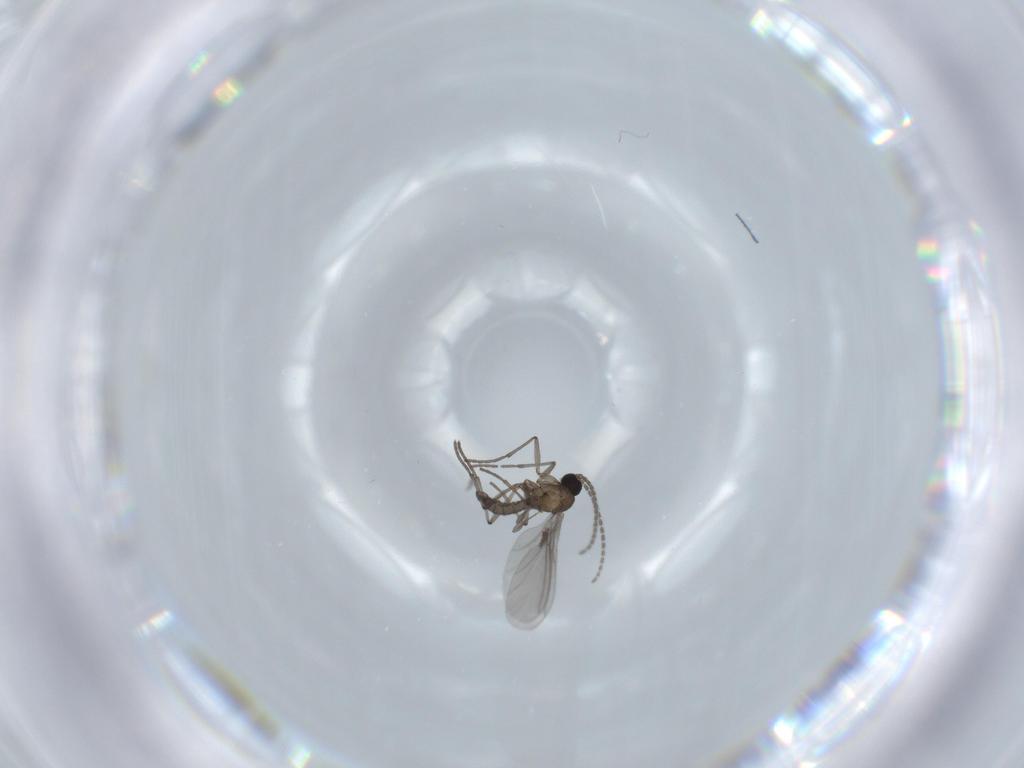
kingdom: Animalia
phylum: Arthropoda
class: Insecta
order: Diptera
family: Sciaridae
